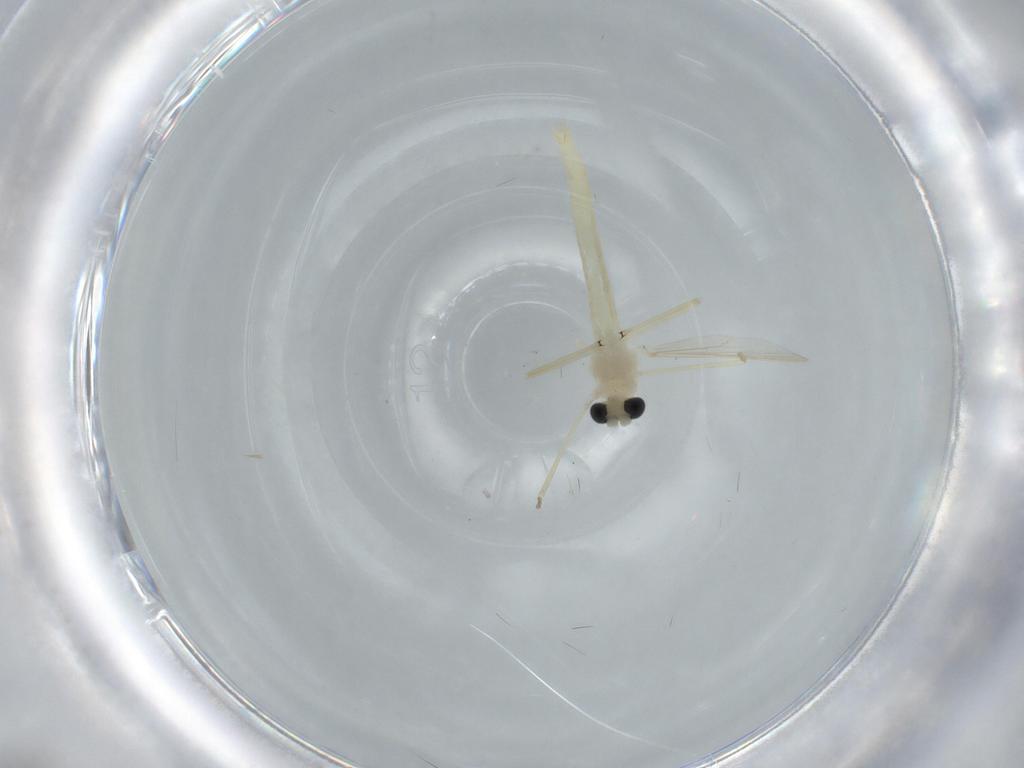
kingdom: Animalia
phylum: Arthropoda
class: Insecta
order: Diptera
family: Chironomidae
